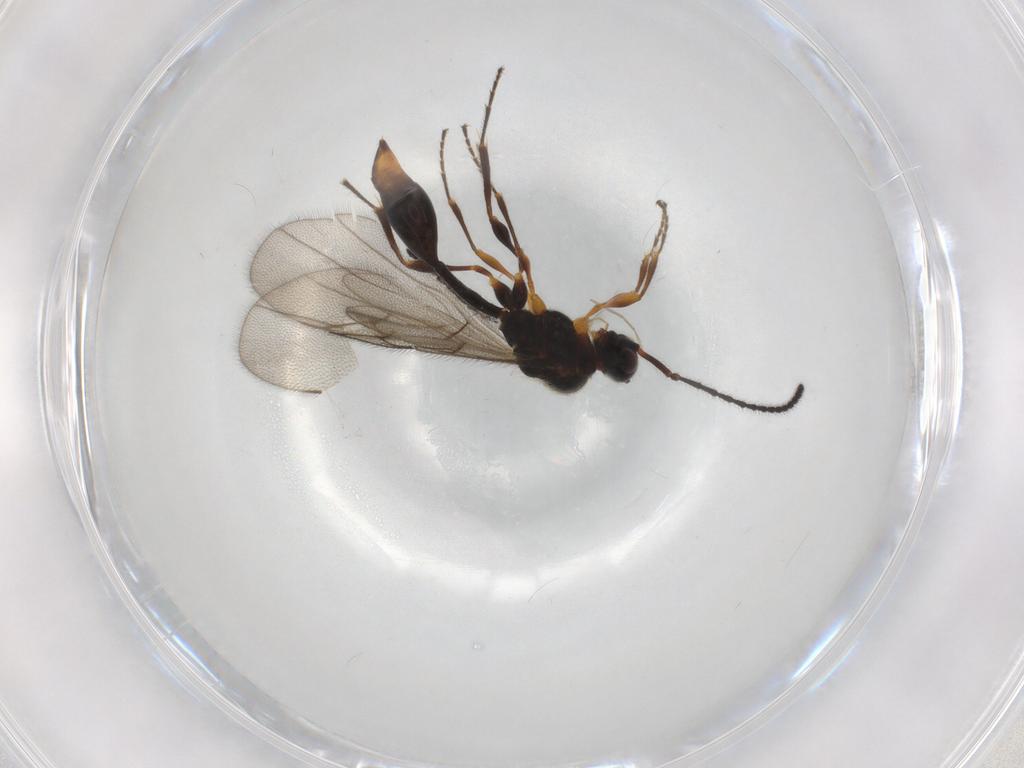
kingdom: Animalia
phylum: Arthropoda
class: Insecta
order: Hymenoptera
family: Diapriidae
